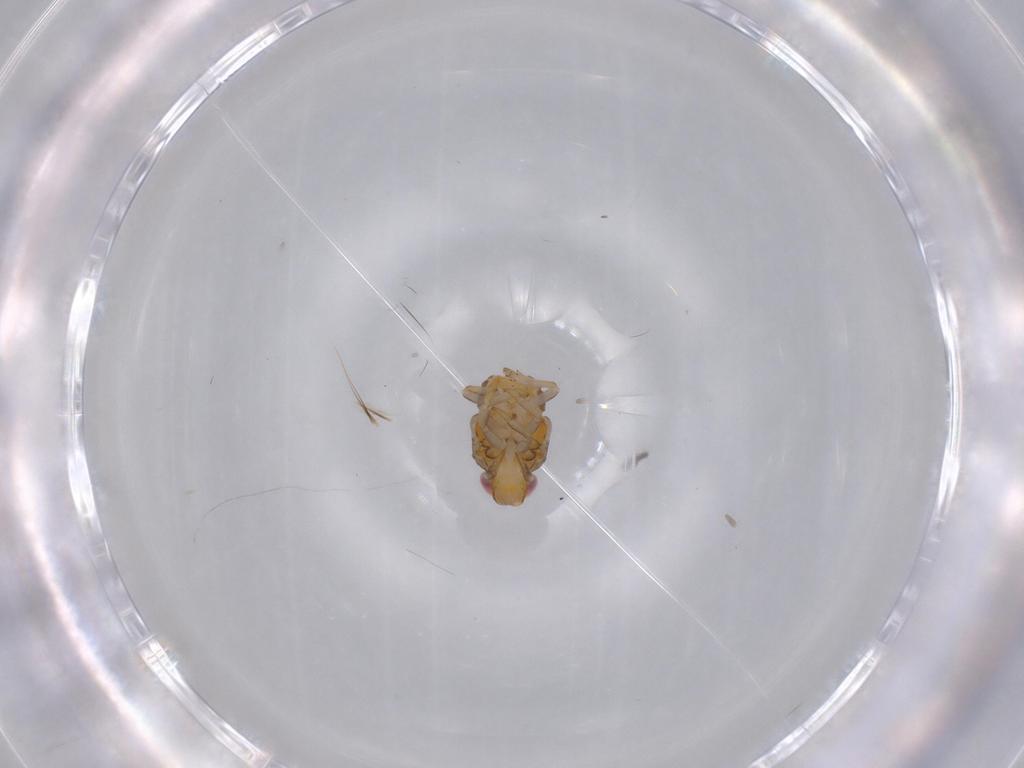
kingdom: Animalia
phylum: Arthropoda
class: Insecta
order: Hemiptera
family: Issidae
